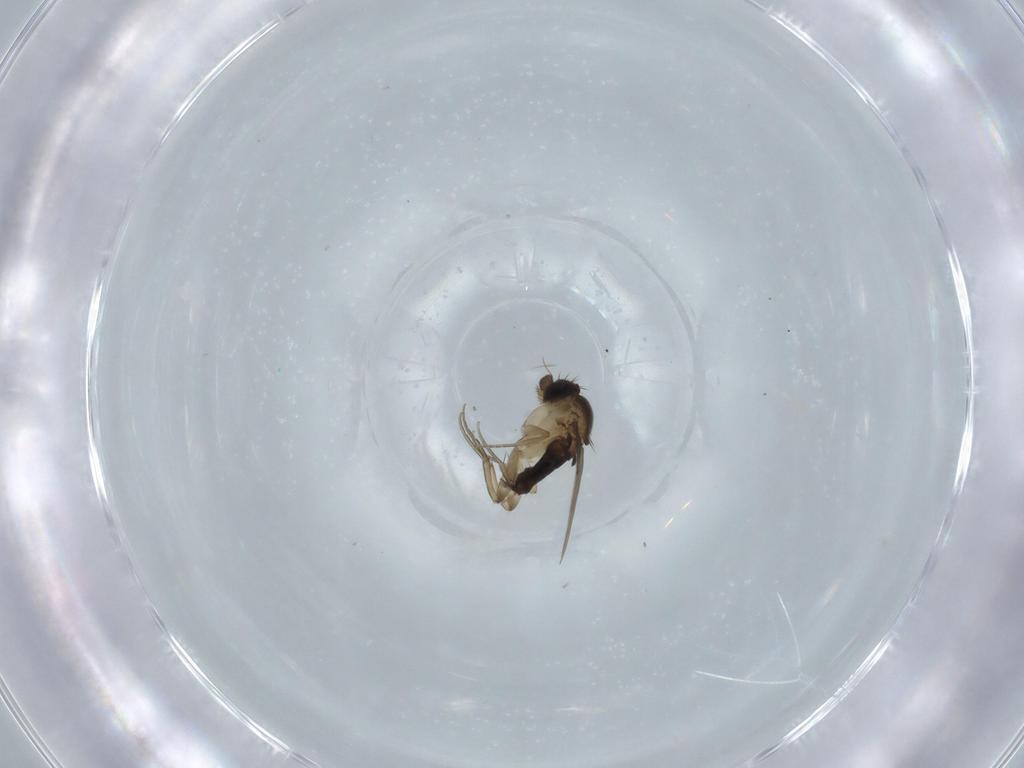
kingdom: Animalia
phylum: Arthropoda
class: Insecta
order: Diptera
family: Phoridae
